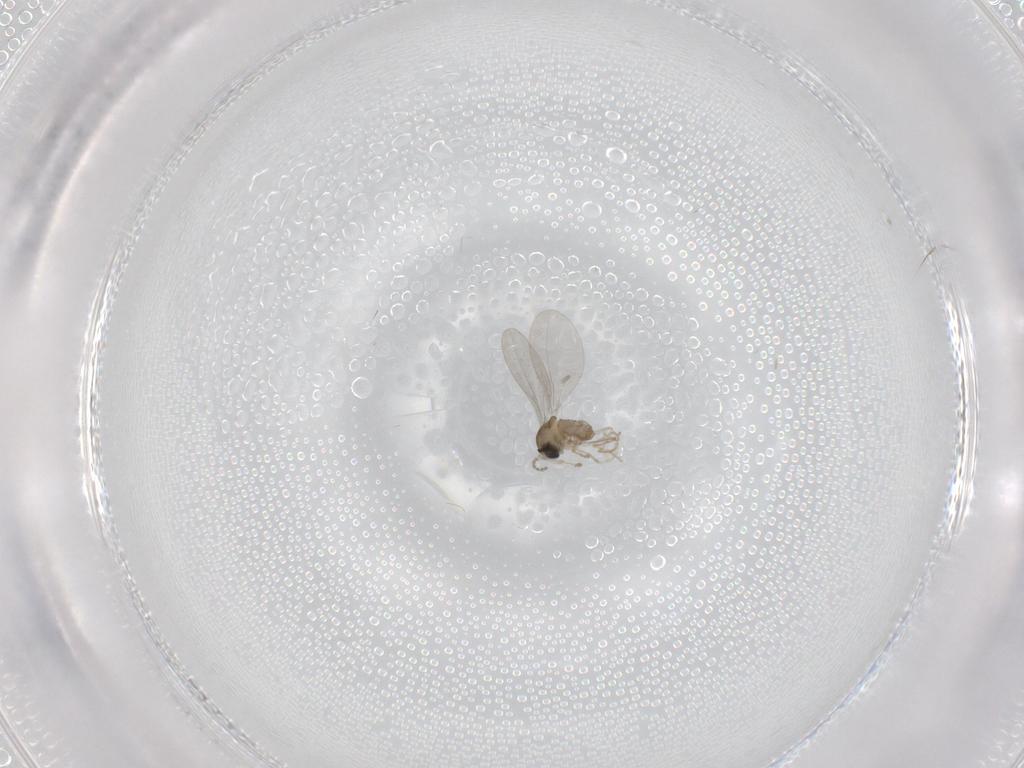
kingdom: Animalia
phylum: Arthropoda
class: Insecta
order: Diptera
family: Cecidomyiidae
